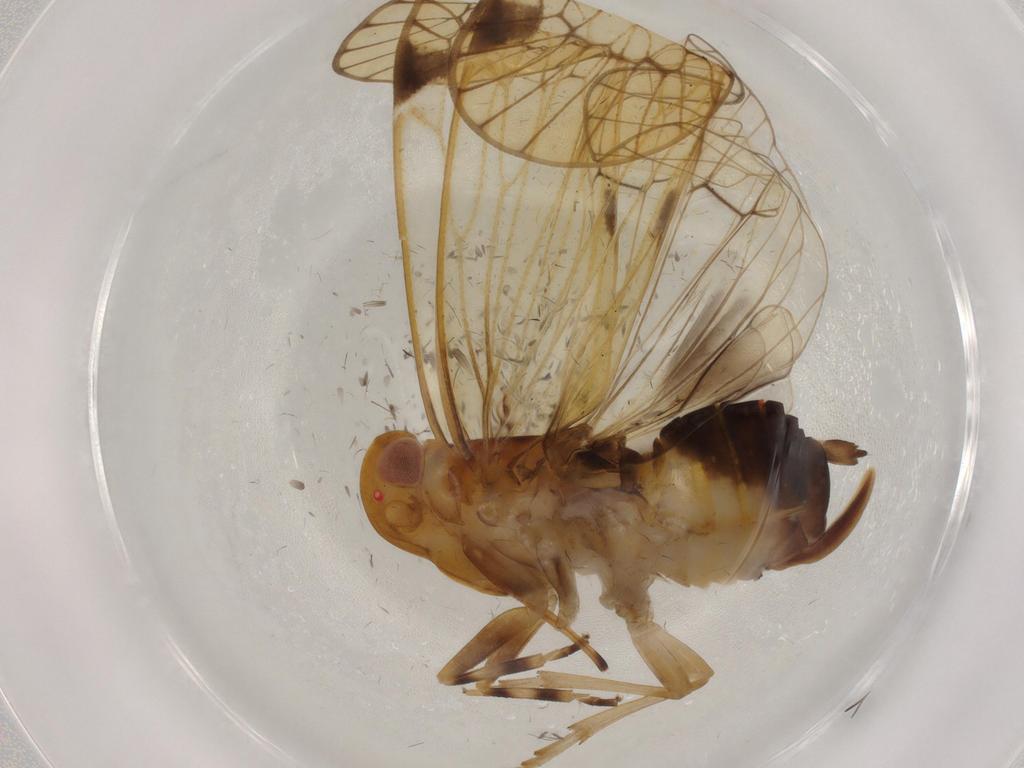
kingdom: Animalia
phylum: Arthropoda
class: Insecta
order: Hemiptera
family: Cixiidae
